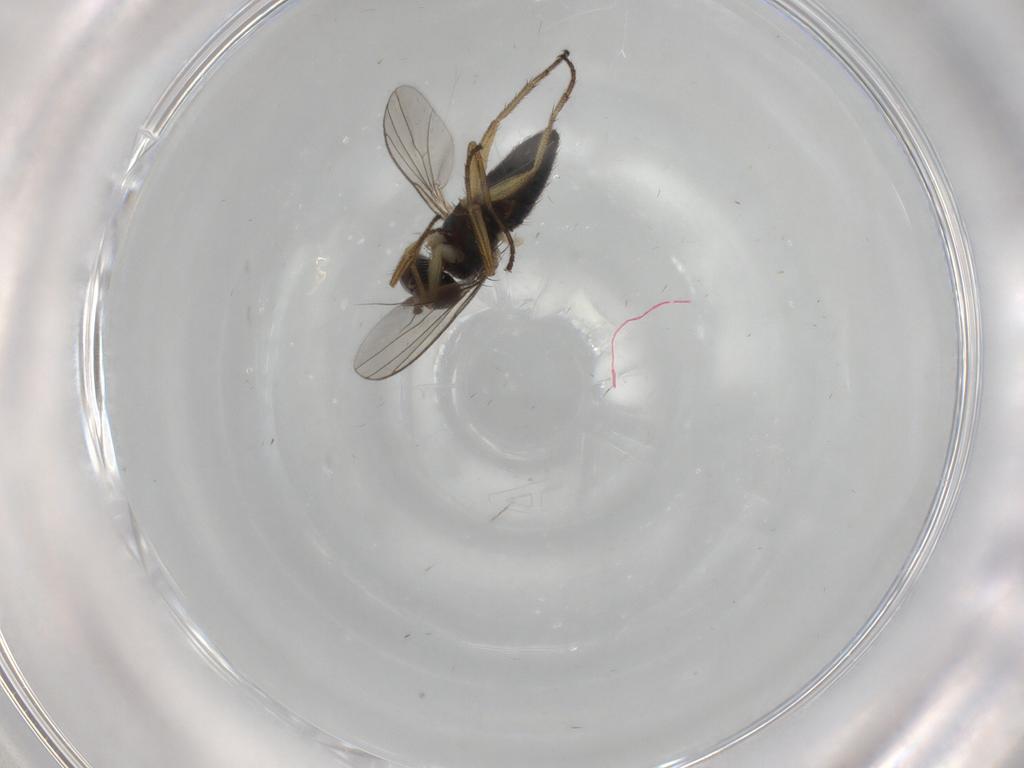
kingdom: Animalia
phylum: Arthropoda
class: Insecta
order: Diptera
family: Dolichopodidae
